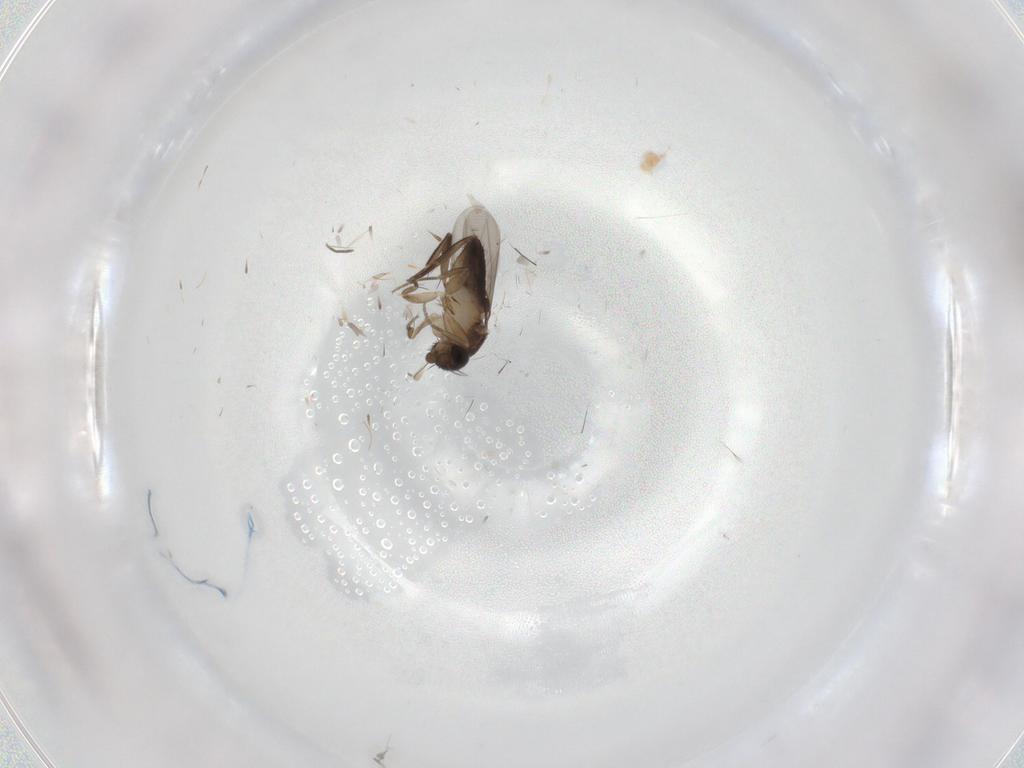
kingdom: Animalia
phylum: Arthropoda
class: Insecta
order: Diptera
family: Phoridae
